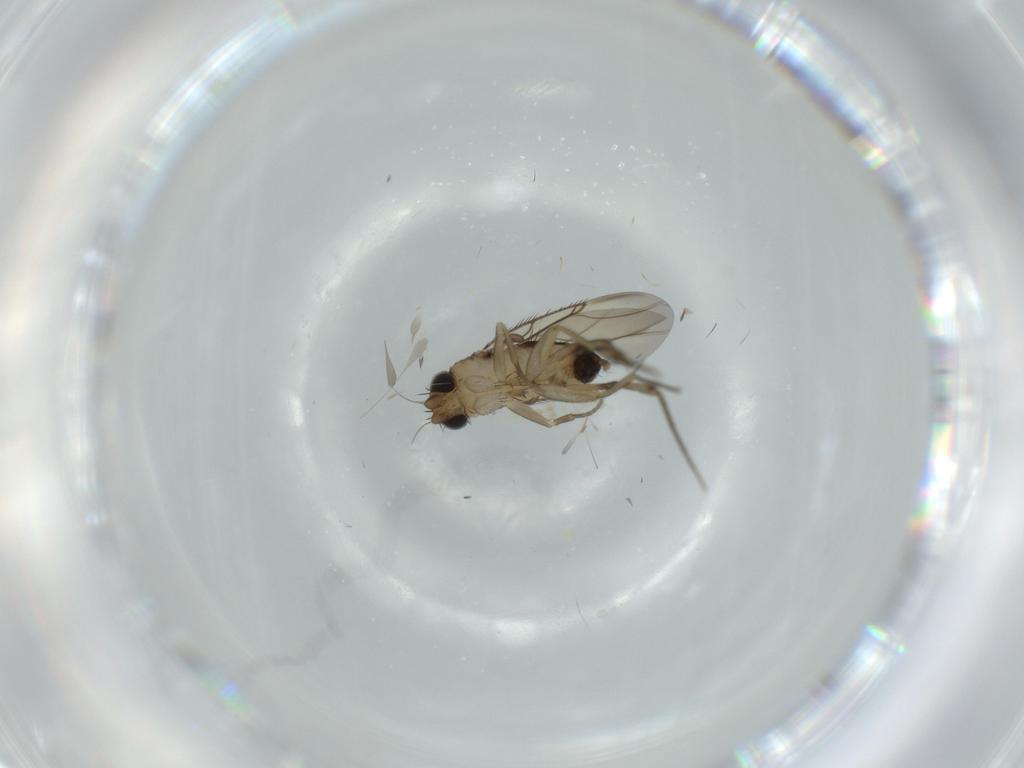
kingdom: Animalia
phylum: Arthropoda
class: Insecta
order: Diptera
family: Phoridae
